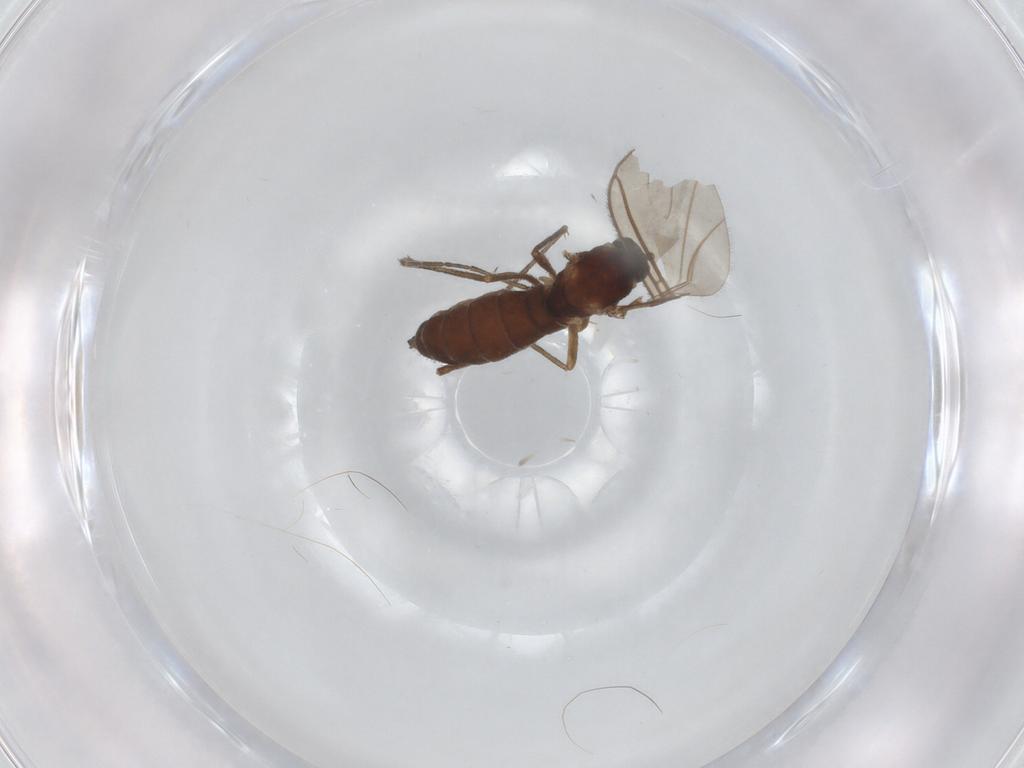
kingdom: Animalia
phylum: Arthropoda
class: Insecta
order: Diptera
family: Sciaridae
